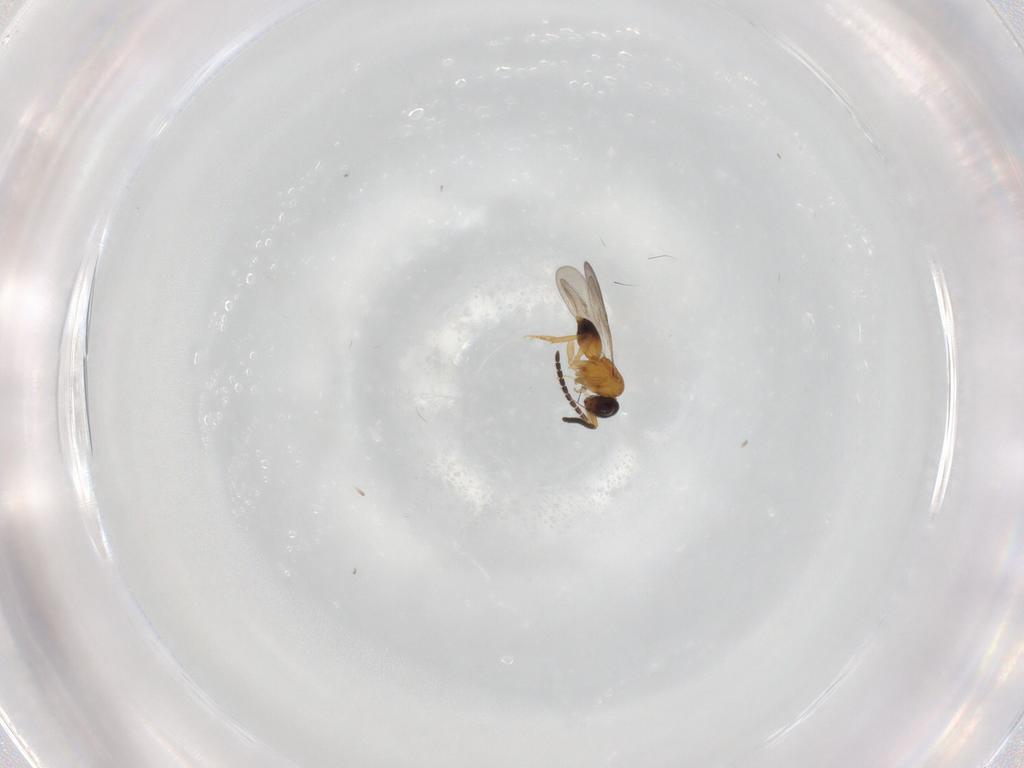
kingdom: Animalia
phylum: Arthropoda
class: Insecta
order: Hymenoptera
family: Ceraphronidae
